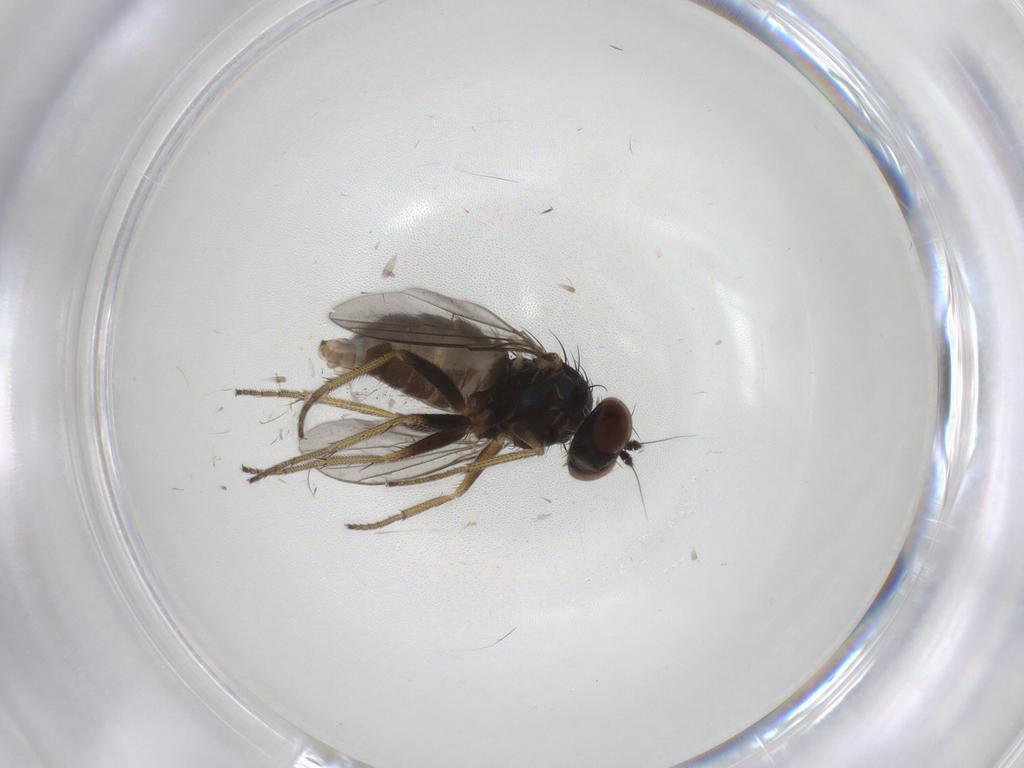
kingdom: Animalia
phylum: Arthropoda
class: Insecta
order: Diptera
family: Dolichopodidae
